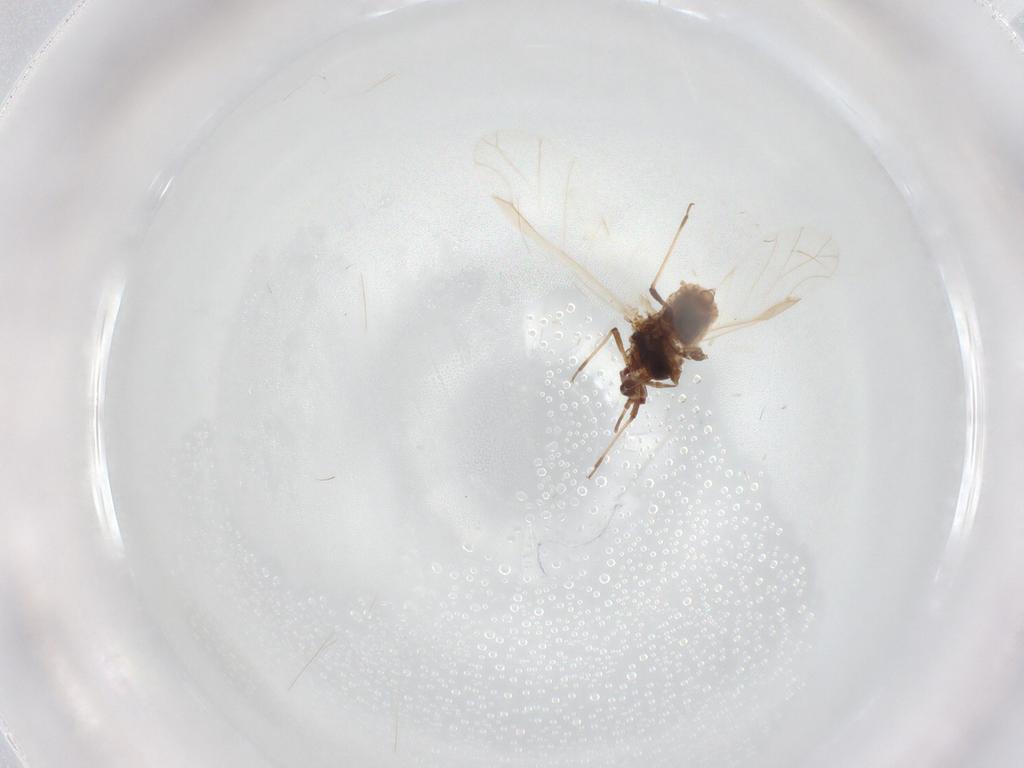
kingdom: Animalia
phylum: Arthropoda
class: Insecta
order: Hemiptera
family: Aphididae
